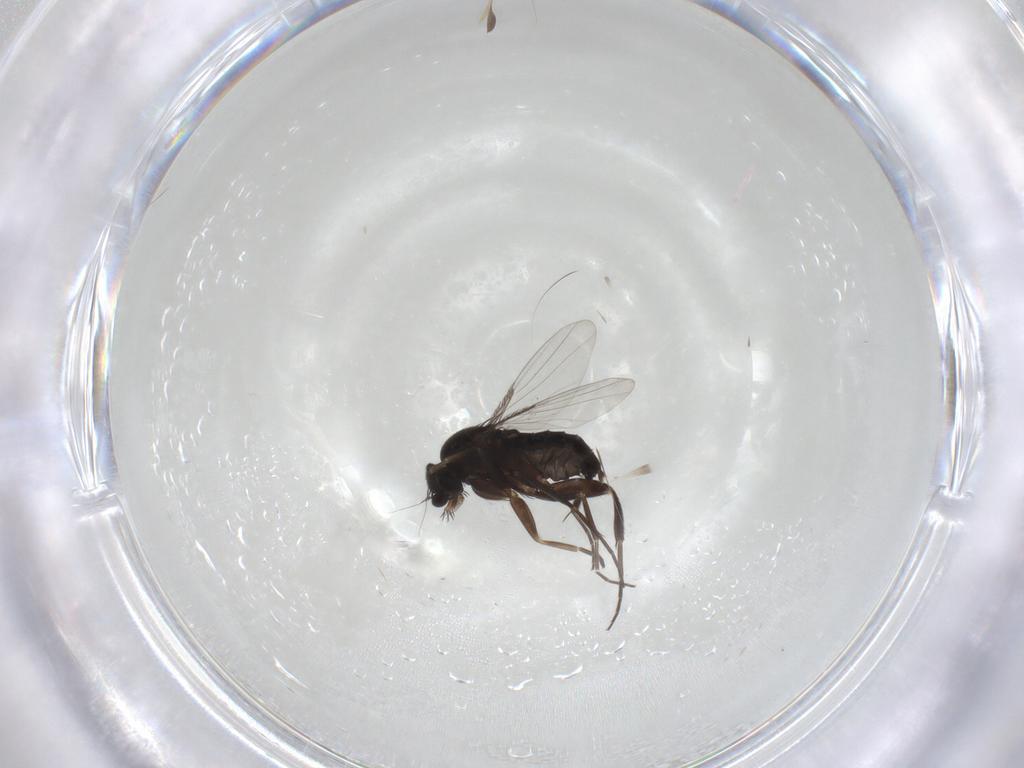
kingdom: Animalia
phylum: Arthropoda
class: Insecta
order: Diptera
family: Phoridae
